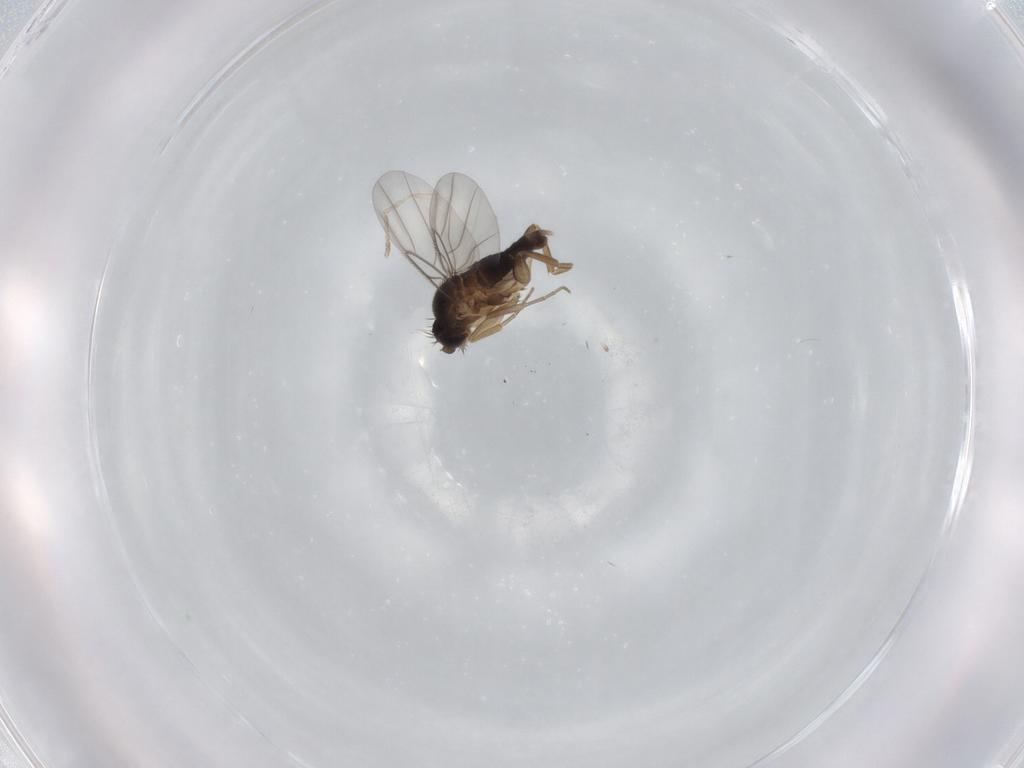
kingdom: Animalia
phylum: Arthropoda
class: Insecta
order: Diptera
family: Phoridae
